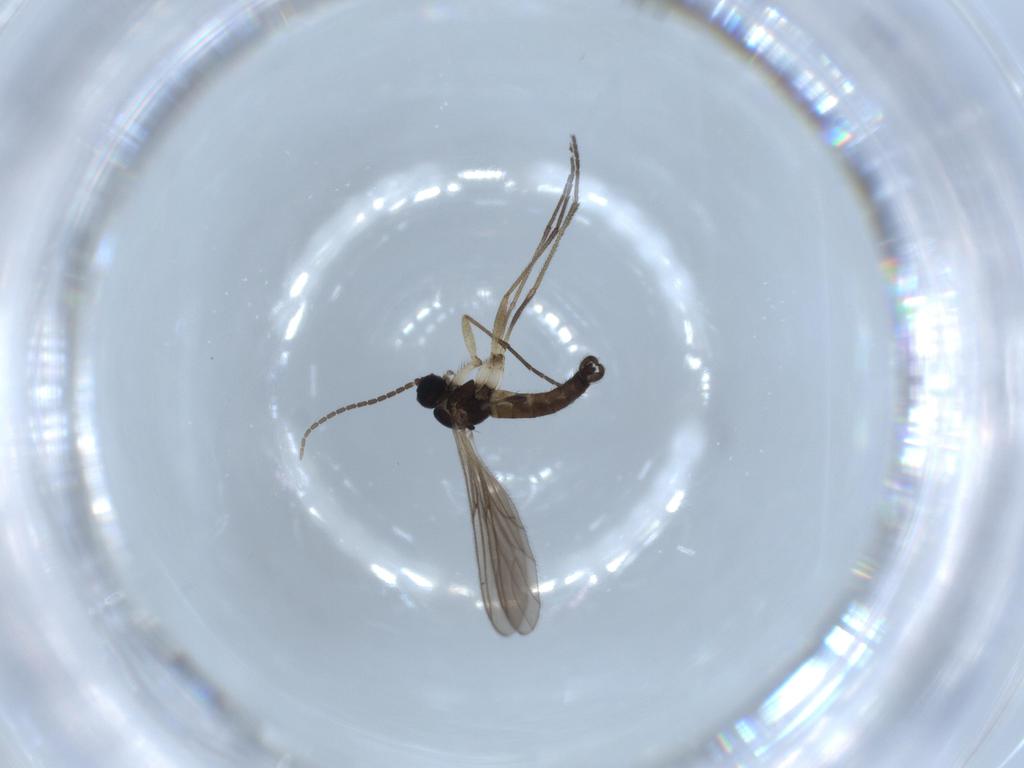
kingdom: Animalia
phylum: Arthropoda
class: Insecta
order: Diptera
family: Sciaridae
